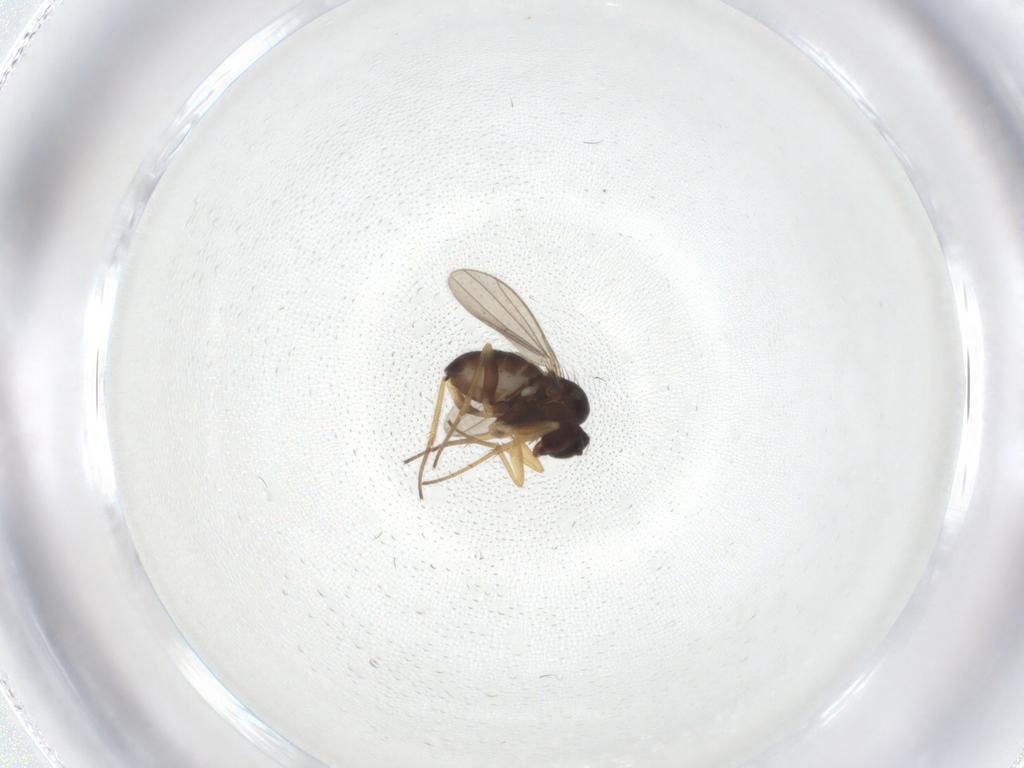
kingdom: Animalia
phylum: Arthropoda
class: Insecta
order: Diptera
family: Dolichopodidae
